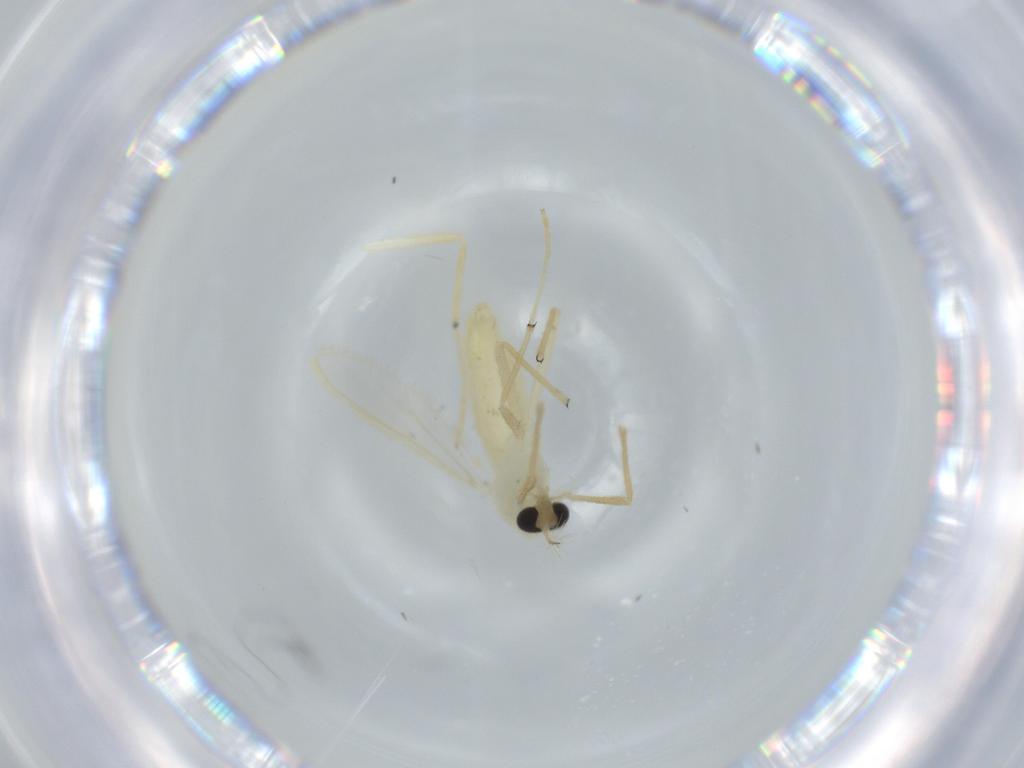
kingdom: Animalia
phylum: Arthropoda
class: Insecta
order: Diptera
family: Chironomidae
